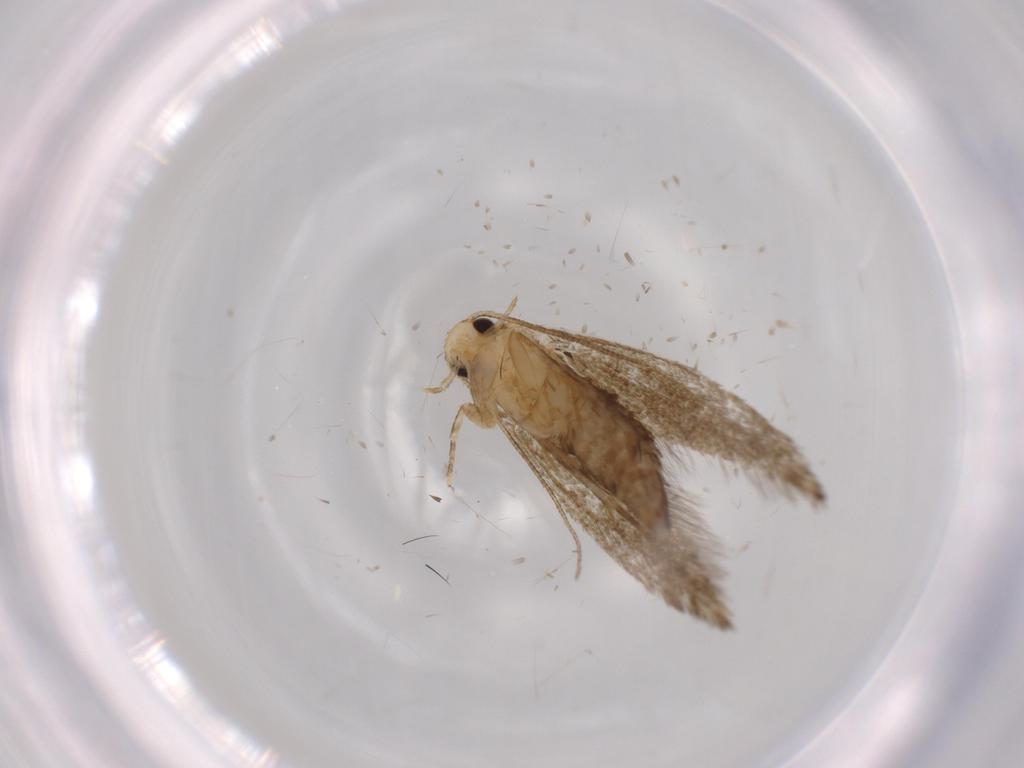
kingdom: Animalia
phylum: Arthropoda
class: Insecta
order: Lepidoptera
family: Tineidae
